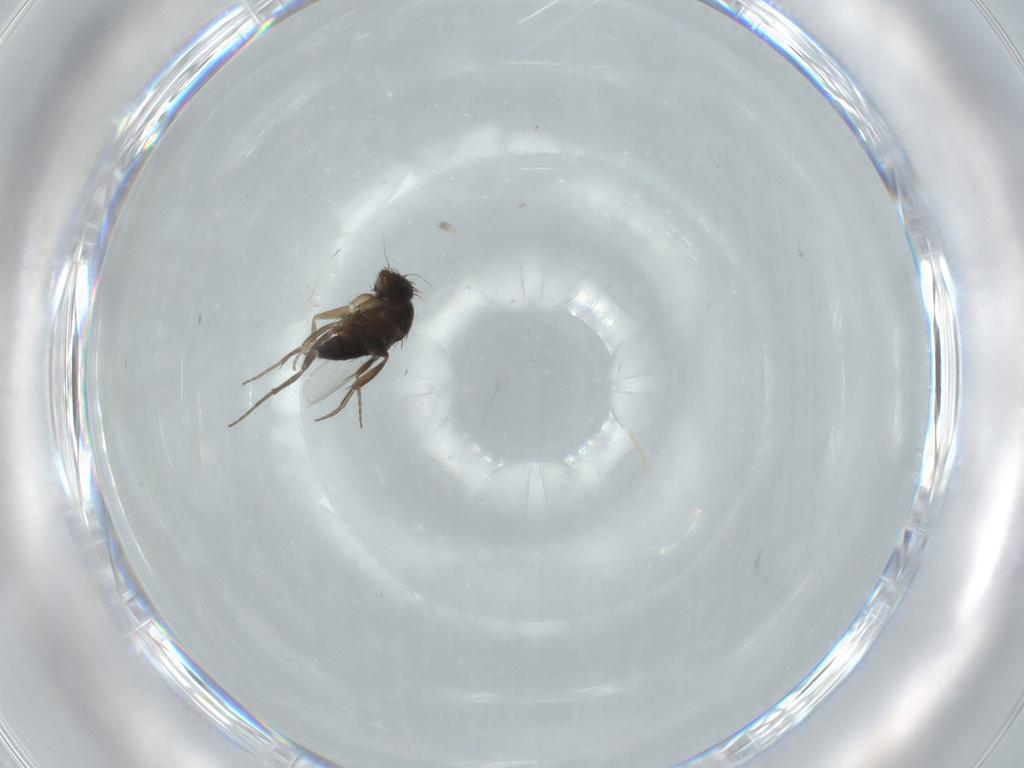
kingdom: Animalia
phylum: Arthropoda
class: Insecta
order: Diptera
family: Phoridae
